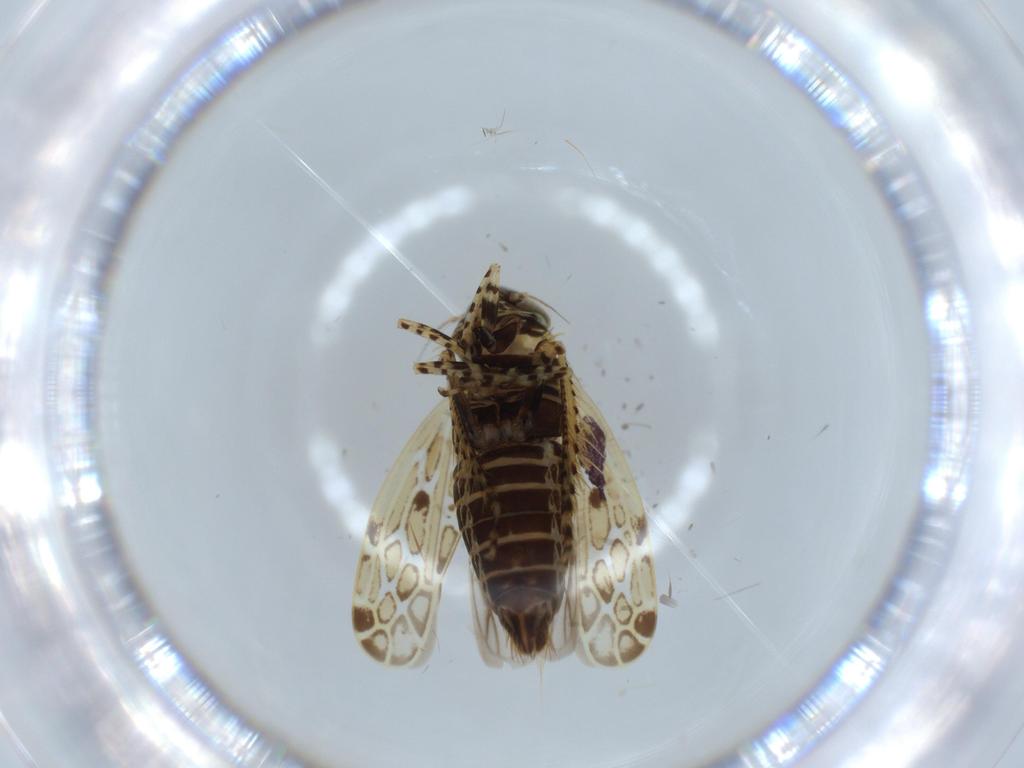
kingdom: Animalia
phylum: Arthropoda
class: Insecta
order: Hemiptera
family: Cicadellidae
